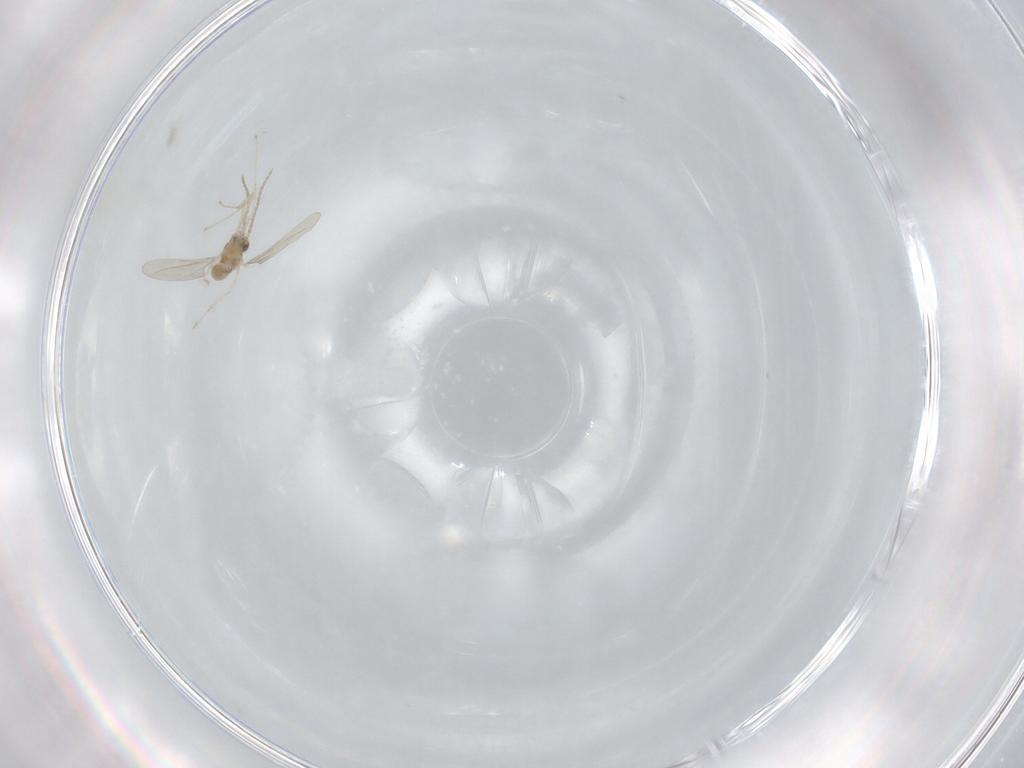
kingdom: Animalia
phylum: Arthropoda
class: Insecta
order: Diptera
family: Cecidomyiidae
